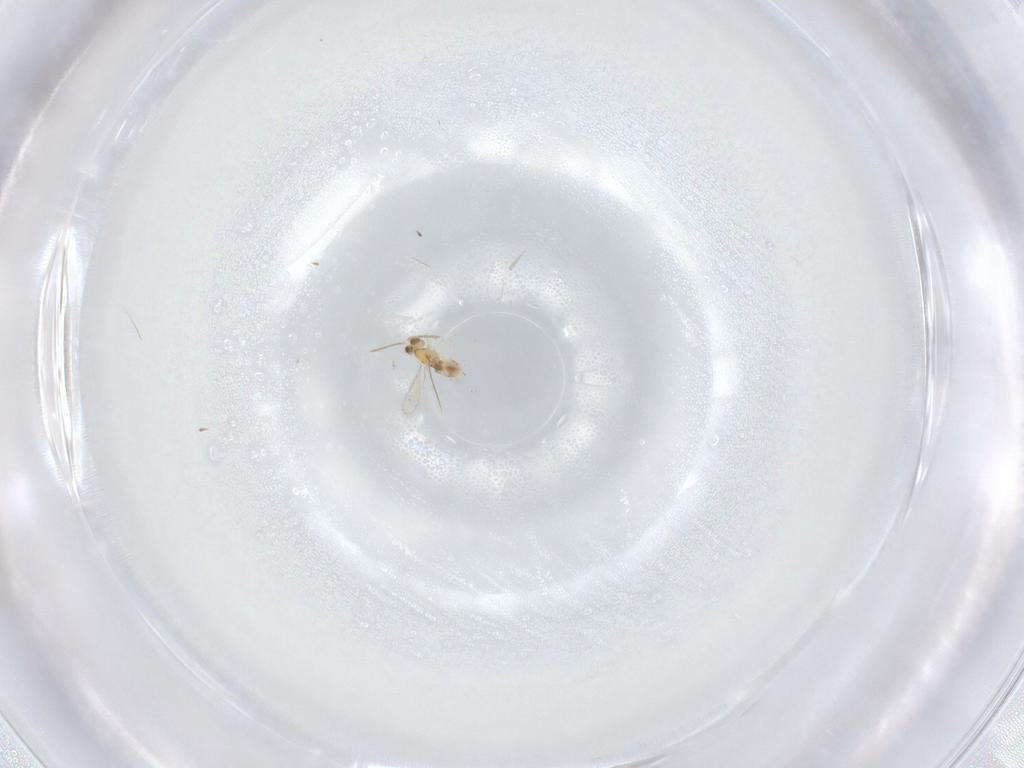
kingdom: Animalia
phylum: Arthropoda
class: Insecta
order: Hymenoptera
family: Aphelinidae
